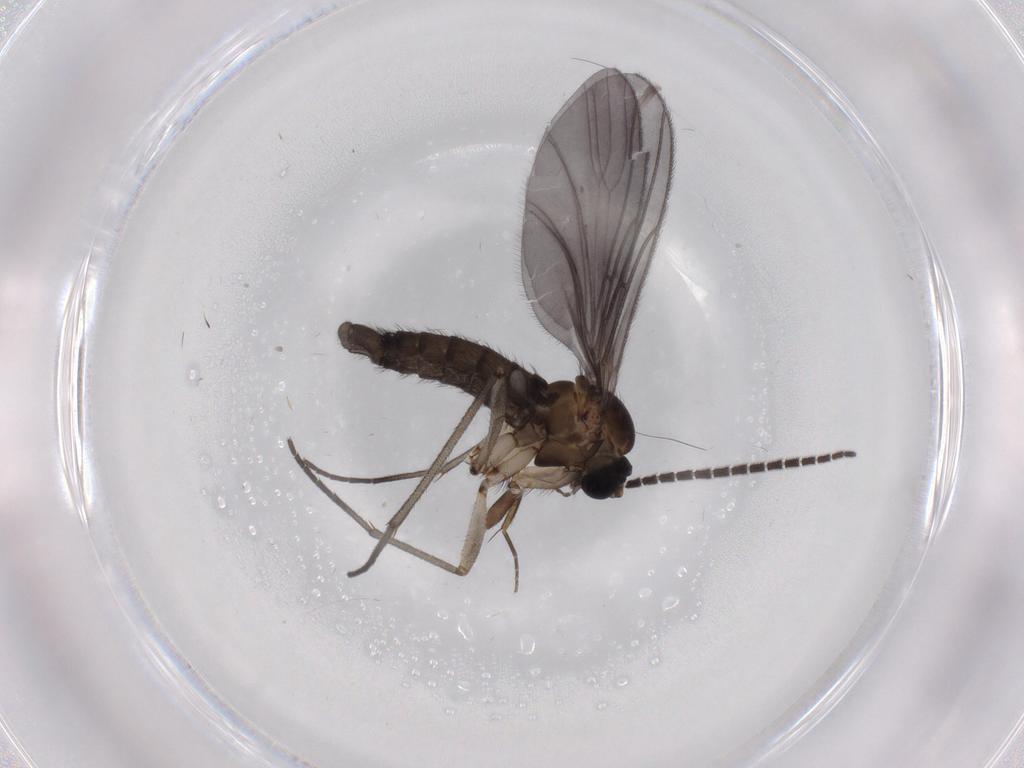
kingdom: Animalia
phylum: Arthropoda
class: Insecta
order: Diptera
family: Sciaridae
